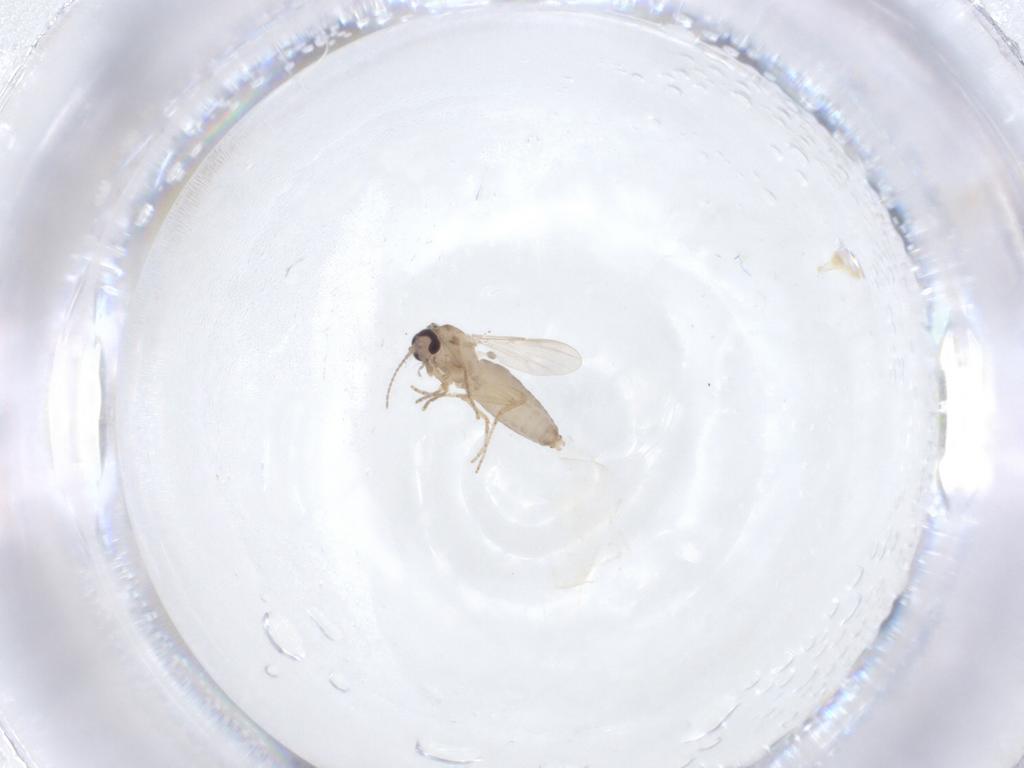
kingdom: Animalia
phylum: Arthropoda
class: Insecta
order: Diptera
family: Ceratopogonidae
